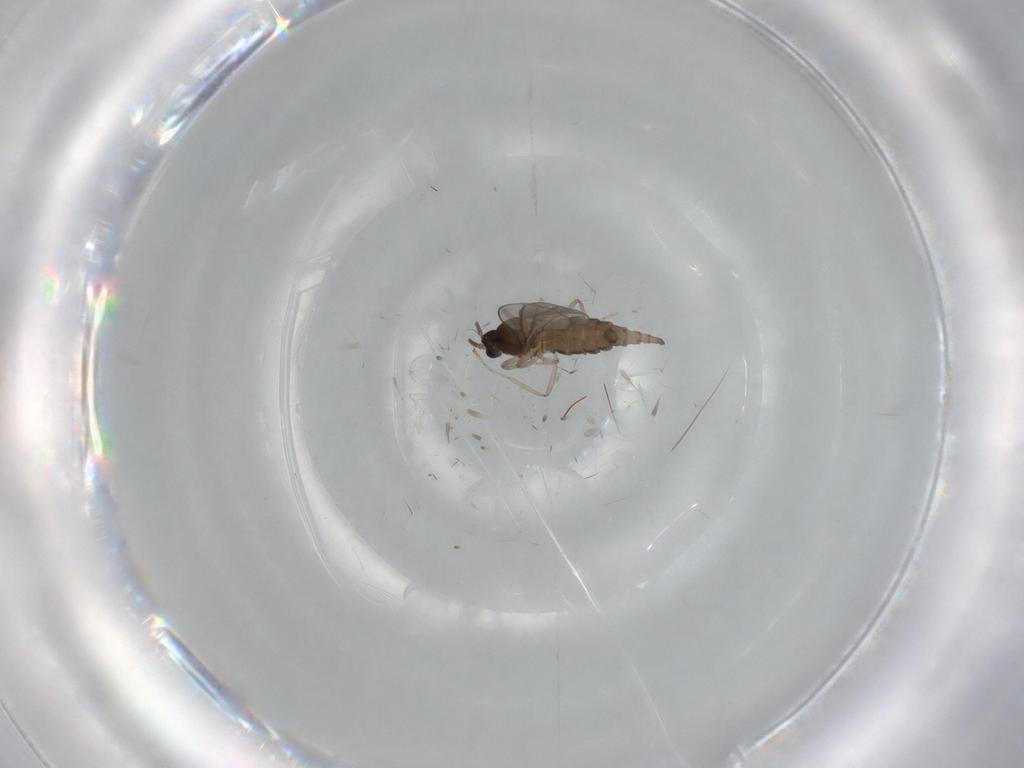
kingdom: Animalia
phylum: Arthropoda
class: Insecta
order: Diptera
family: Cecidomyiidae
